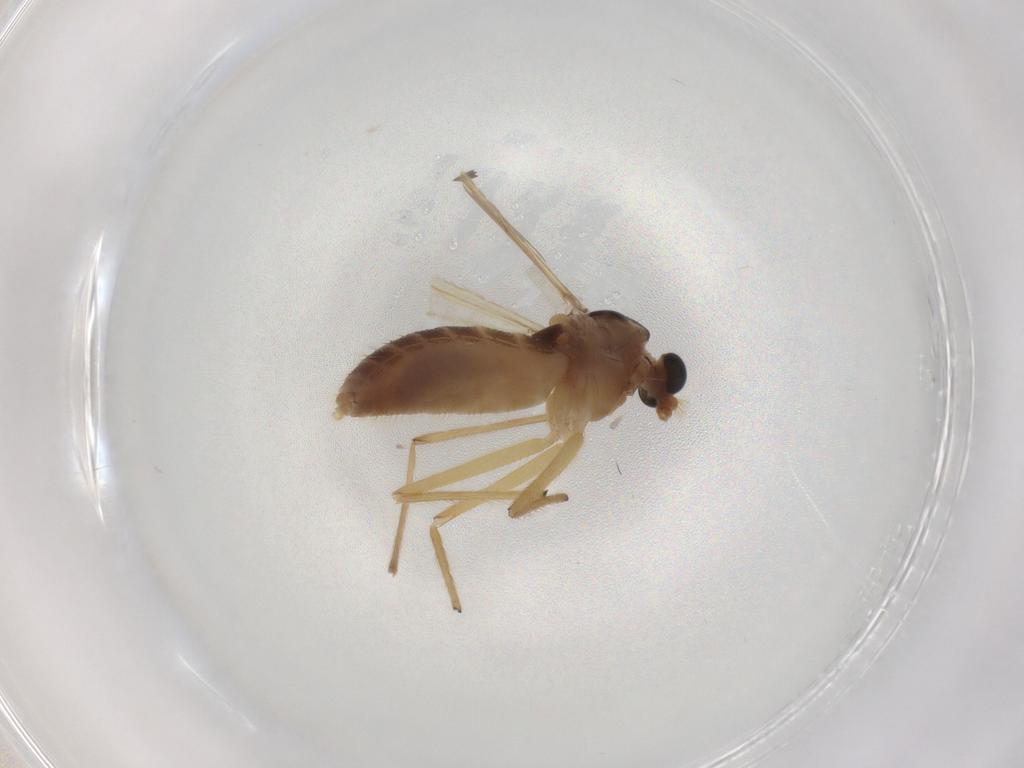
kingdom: Animalia
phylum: Arthropoda
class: Insecta
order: Diptera
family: Chironomidae
